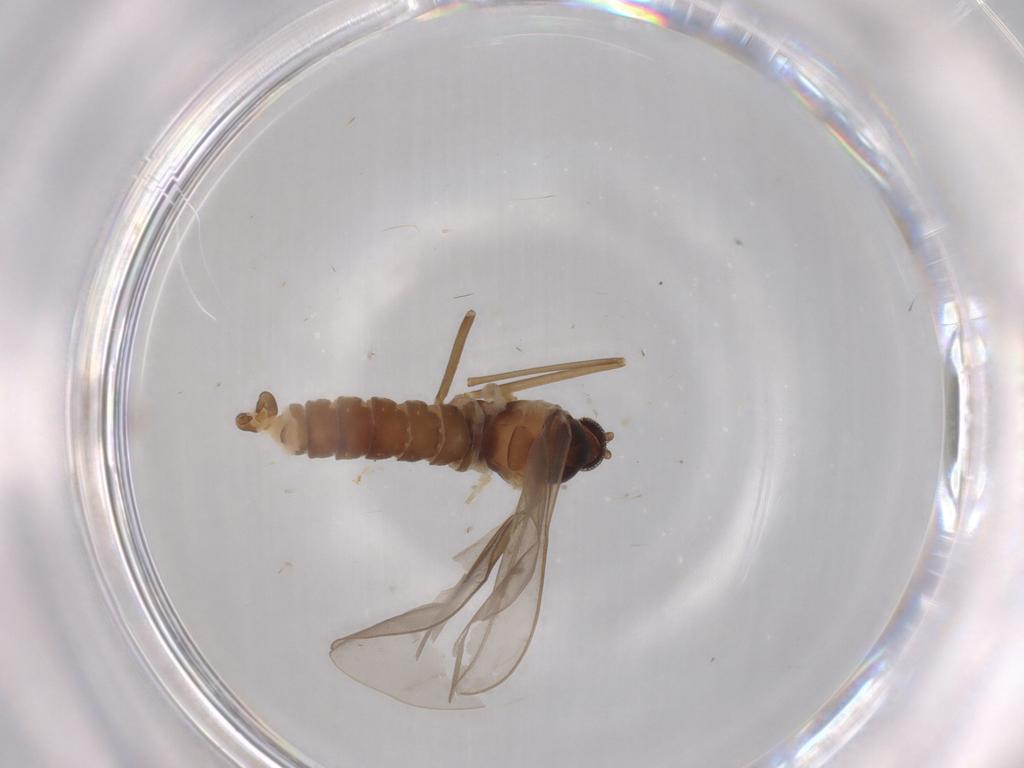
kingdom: Animalia
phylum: Arthropoda
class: Insecta
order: Diptera
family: Cecidomyiidae
